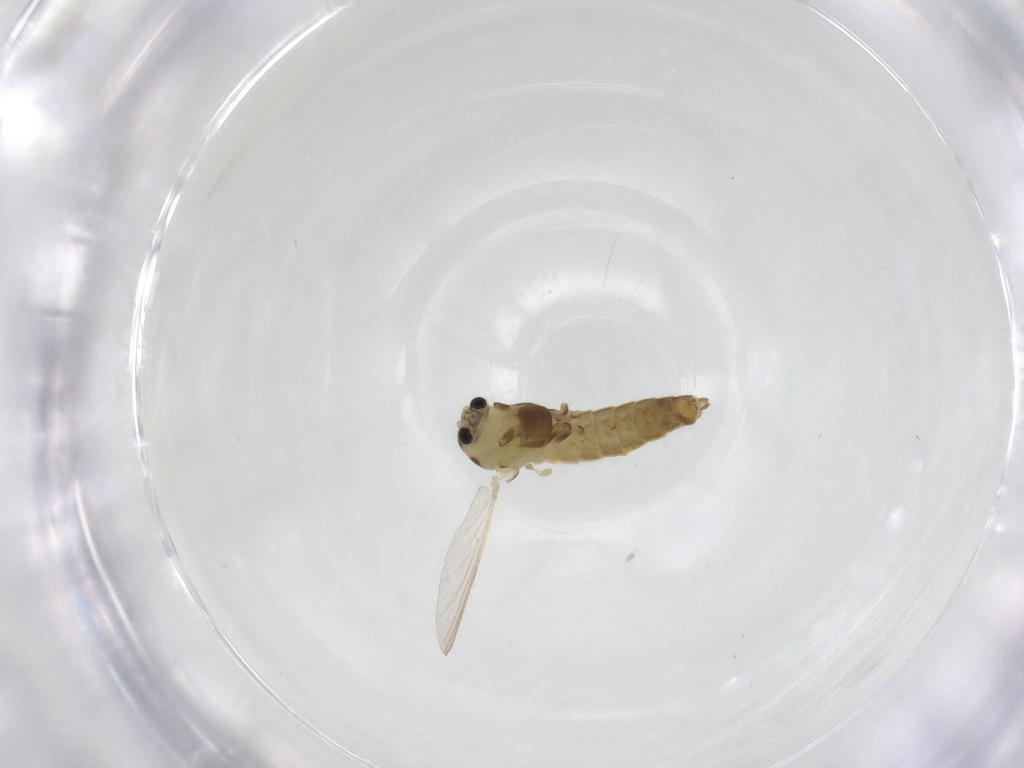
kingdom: Animalia
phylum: Arthropoda
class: Insecta
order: Diptera
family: Chironomidae
